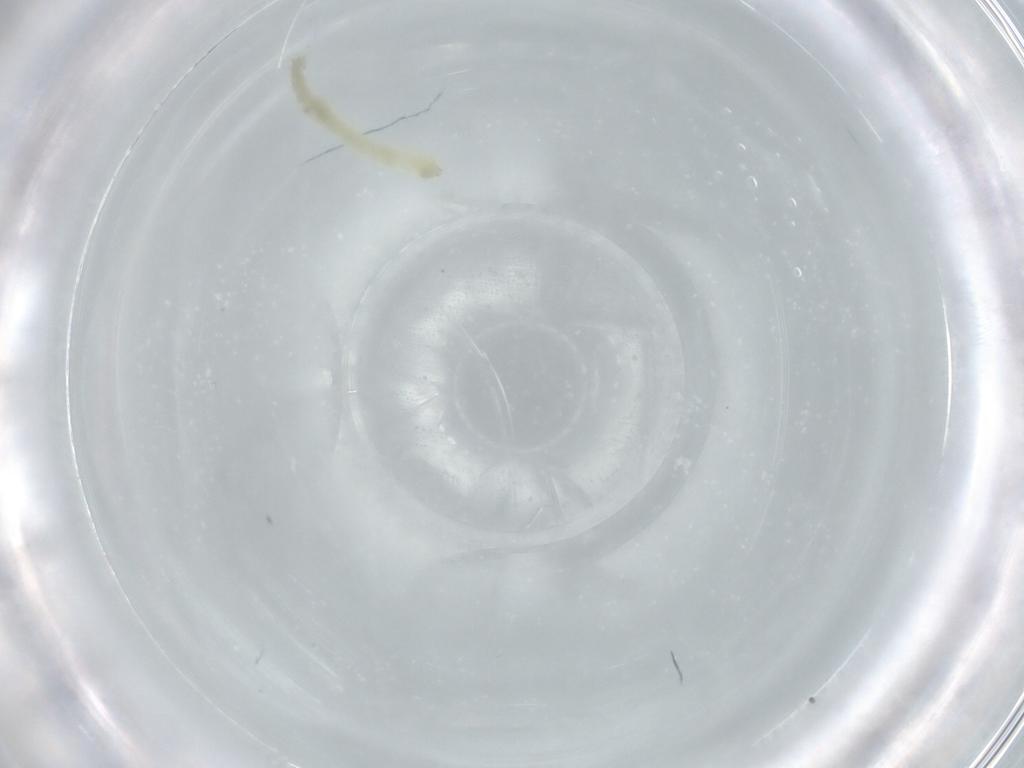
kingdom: Animalia
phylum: Arthropoda
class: Insecta
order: Diptera
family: Chironomidae
